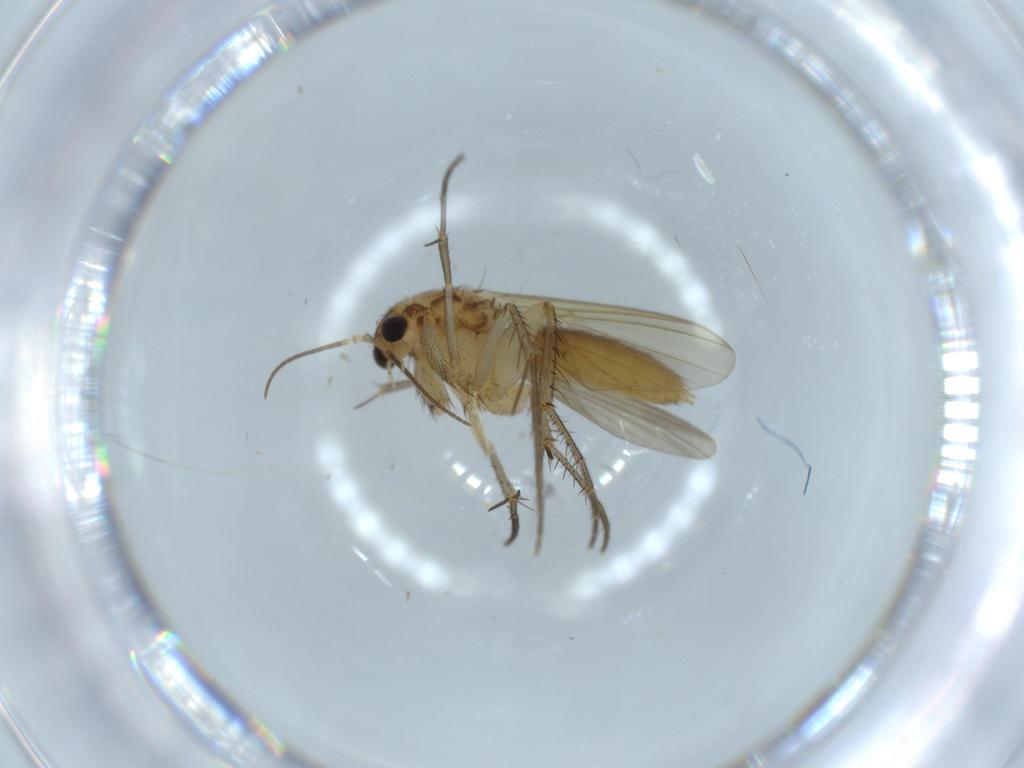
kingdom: Animalia
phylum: Arthropoda
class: Insecta
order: Diptera
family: Mycetophilidae
